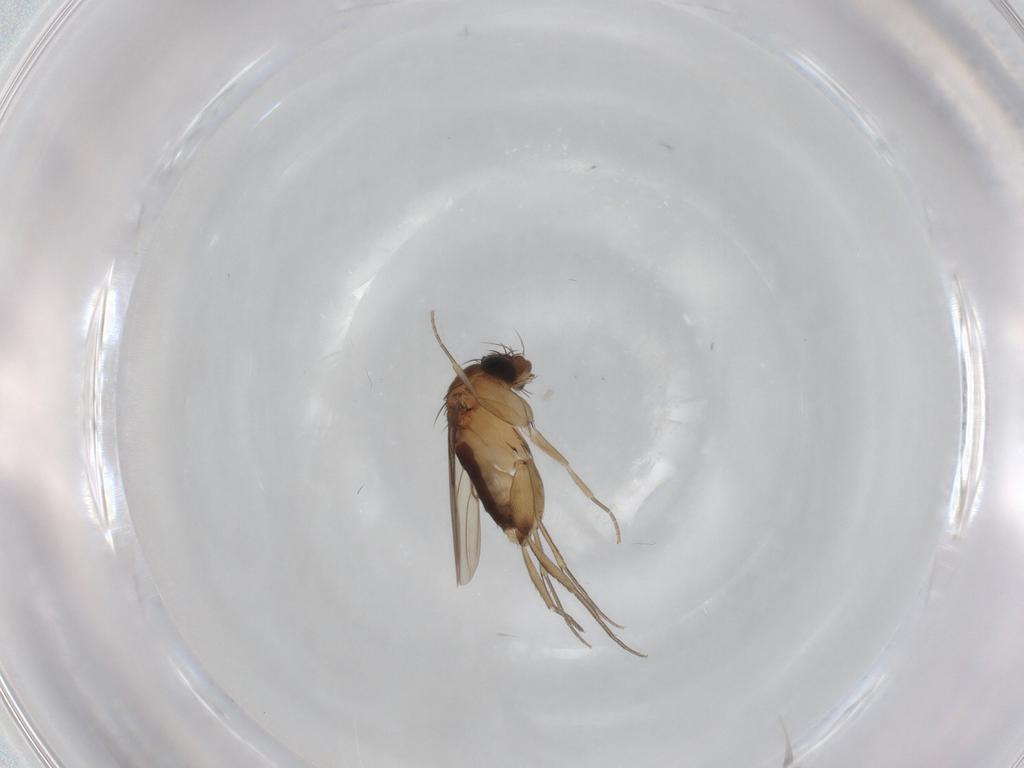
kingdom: Animalia
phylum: Arthropoda
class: Insecta
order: Diptera
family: Phoridae
